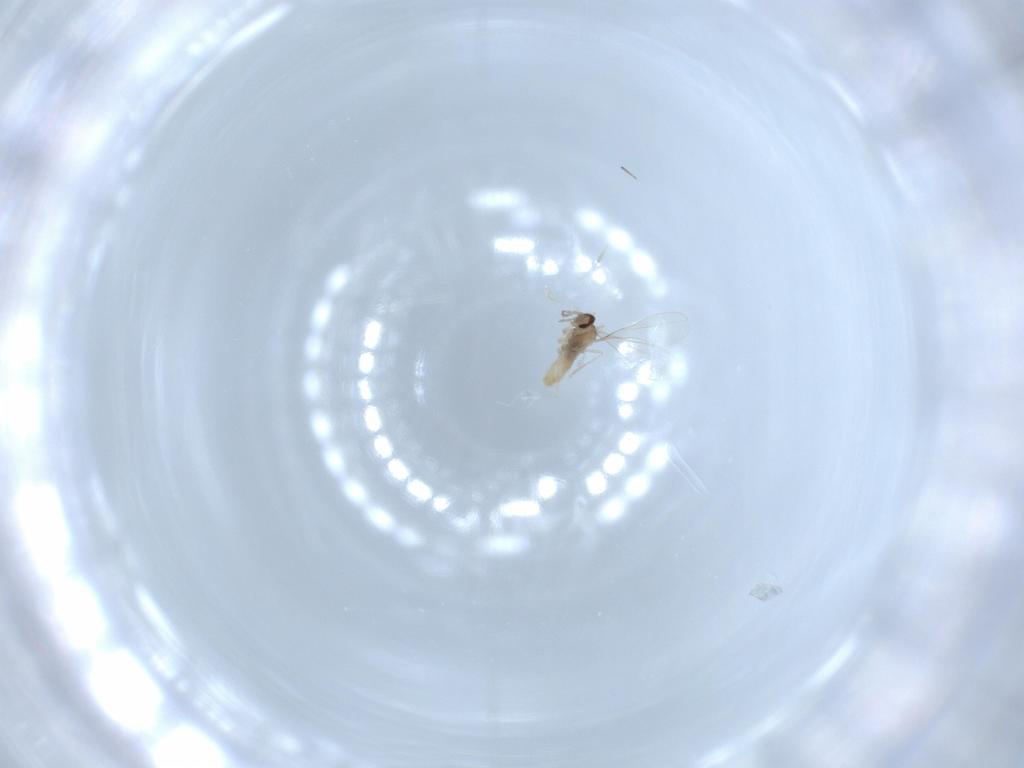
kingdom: Animalia
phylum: Arthropoda
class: Insecta
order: Diptera
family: Cecidomyiidae
